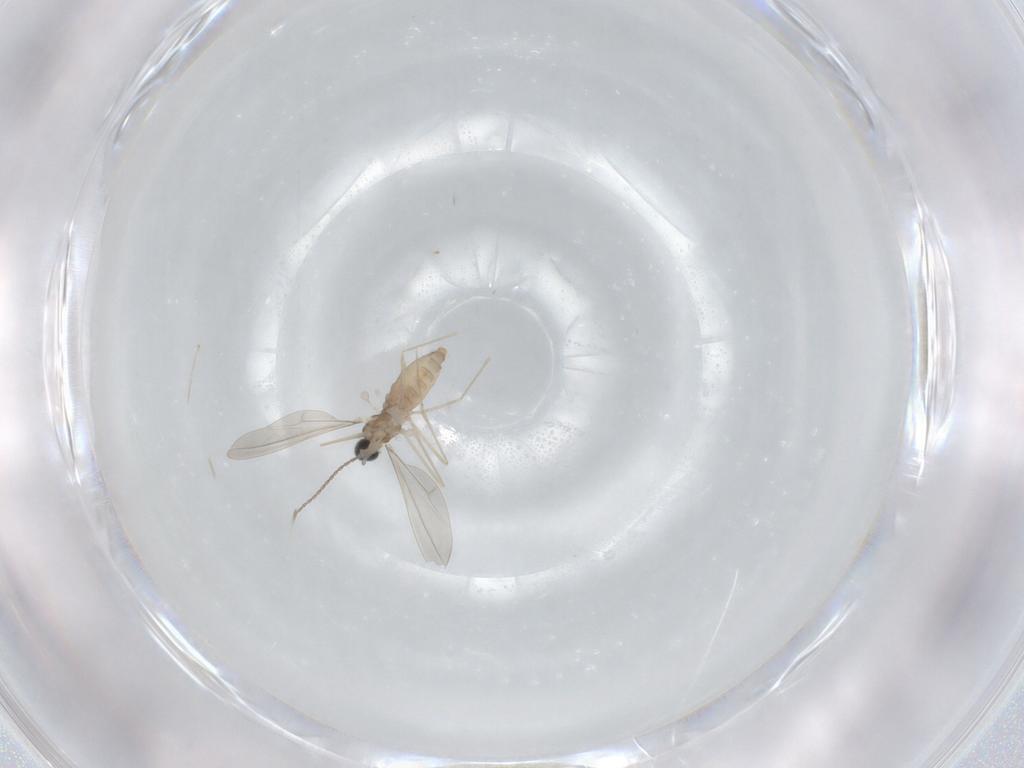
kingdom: Animalia
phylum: Arthropoda
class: Insecta
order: Diptera
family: Cecidomyiidae
